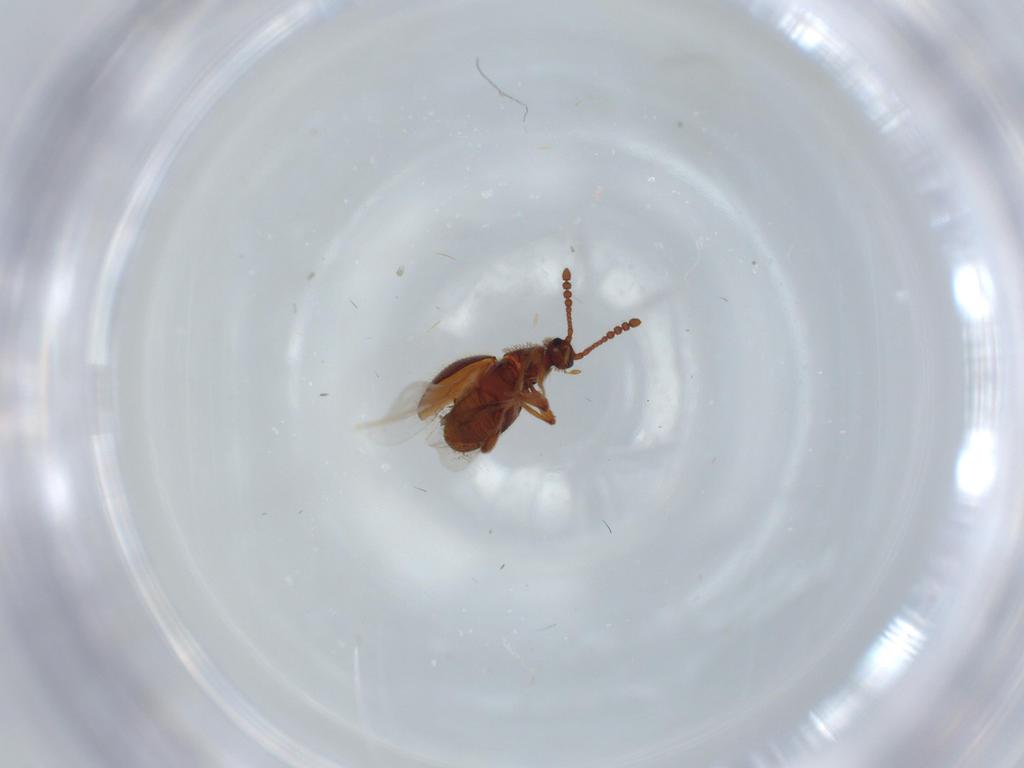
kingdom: Animalia
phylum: Arthropoda
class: Insecta
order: Coleoptera
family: Staphylinidae
